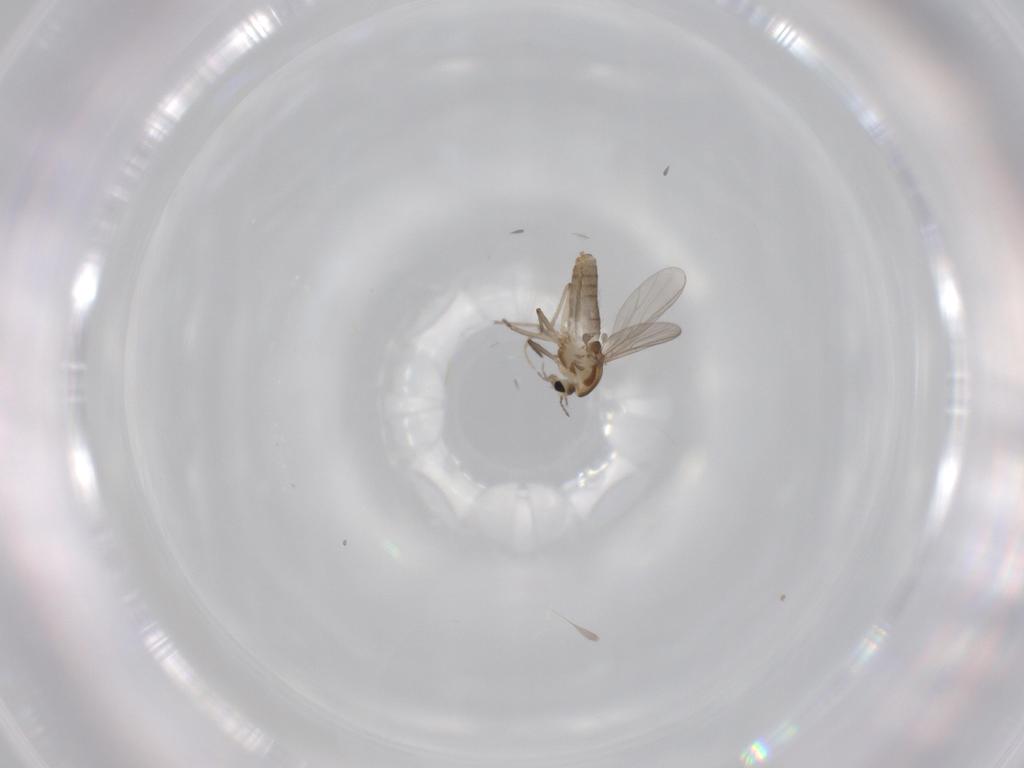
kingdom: Animalia
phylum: Arthropoda
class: Insecta
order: Diptera
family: Chironomidae
